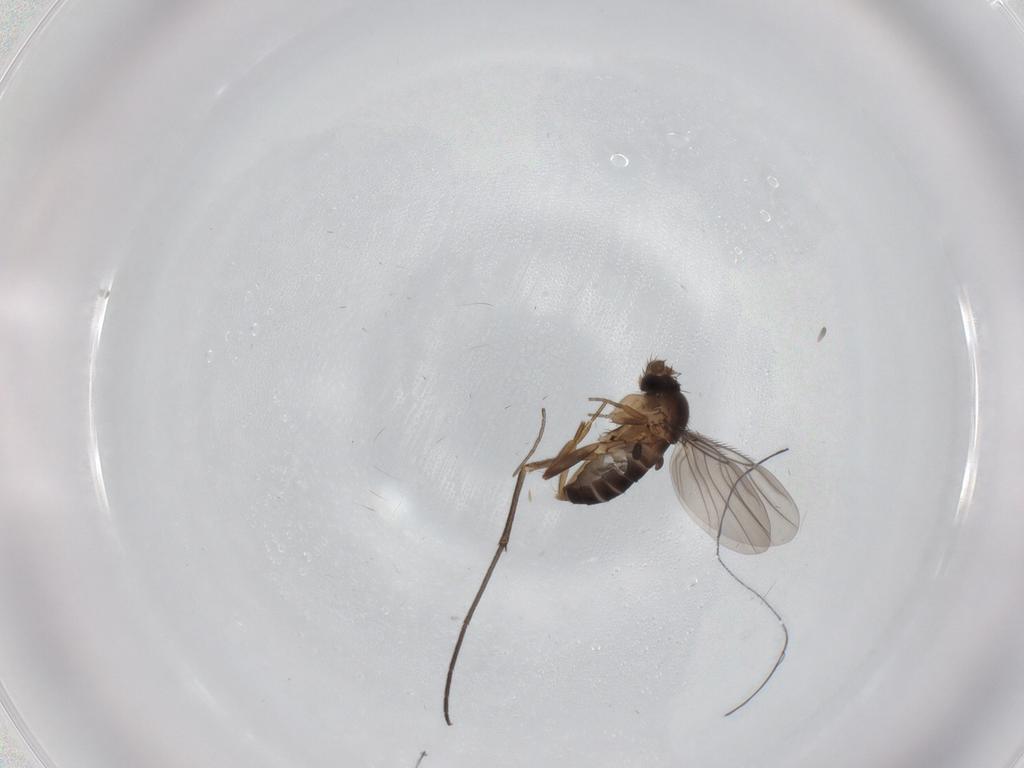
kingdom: Animalia
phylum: Arthropoda
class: Insecta
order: Diptera
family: Phoridae
